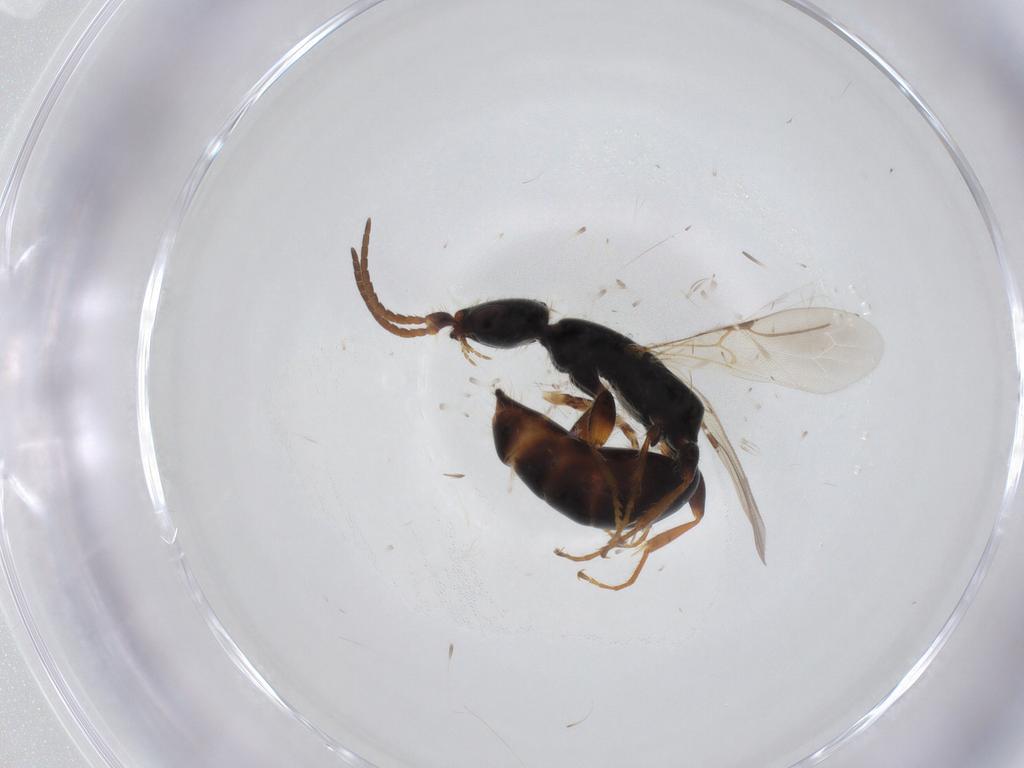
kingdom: Animalia
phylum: Arthropoda
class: Insecta
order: Hymenoptera
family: Bethylidae
